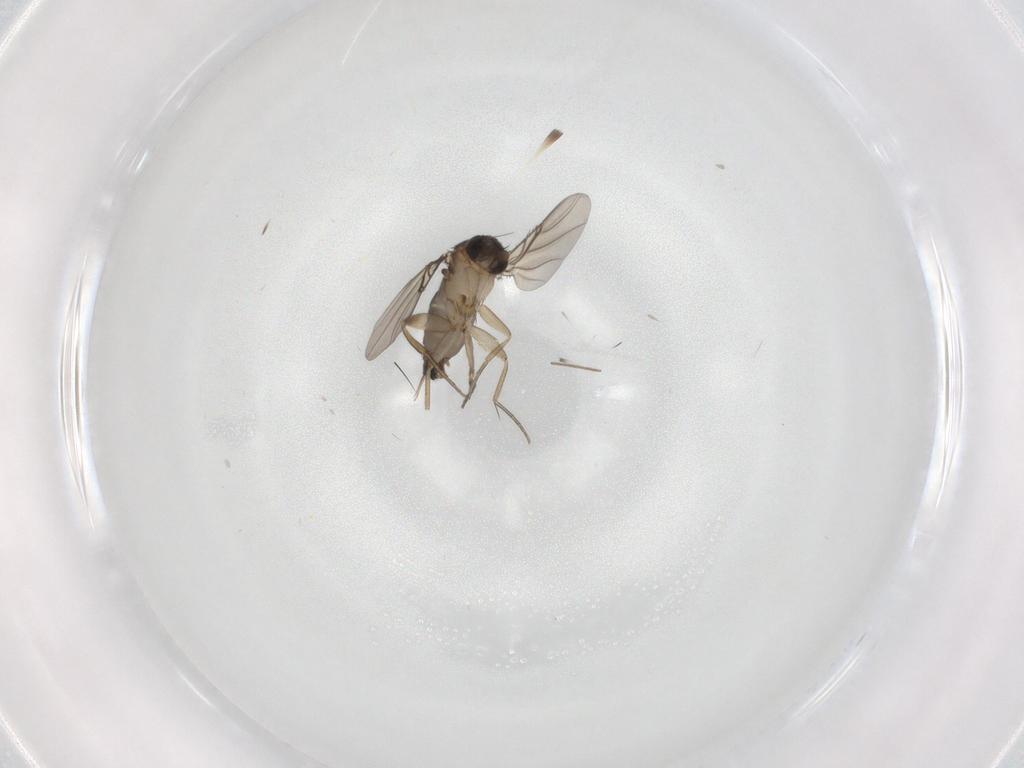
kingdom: Animalia
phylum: Arthropoda
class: Insecta
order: Diptera
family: Chironomidae
